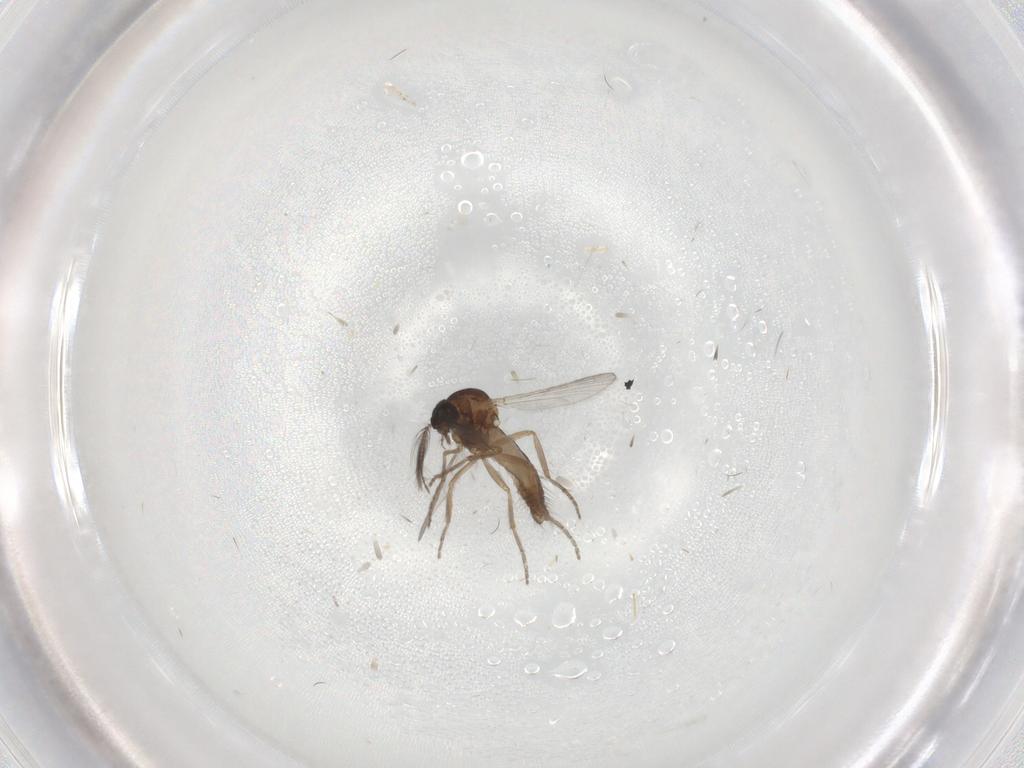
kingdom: Animalia
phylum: Arthropoda
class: Insecta
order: Diptera
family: Ceratopogonidae
